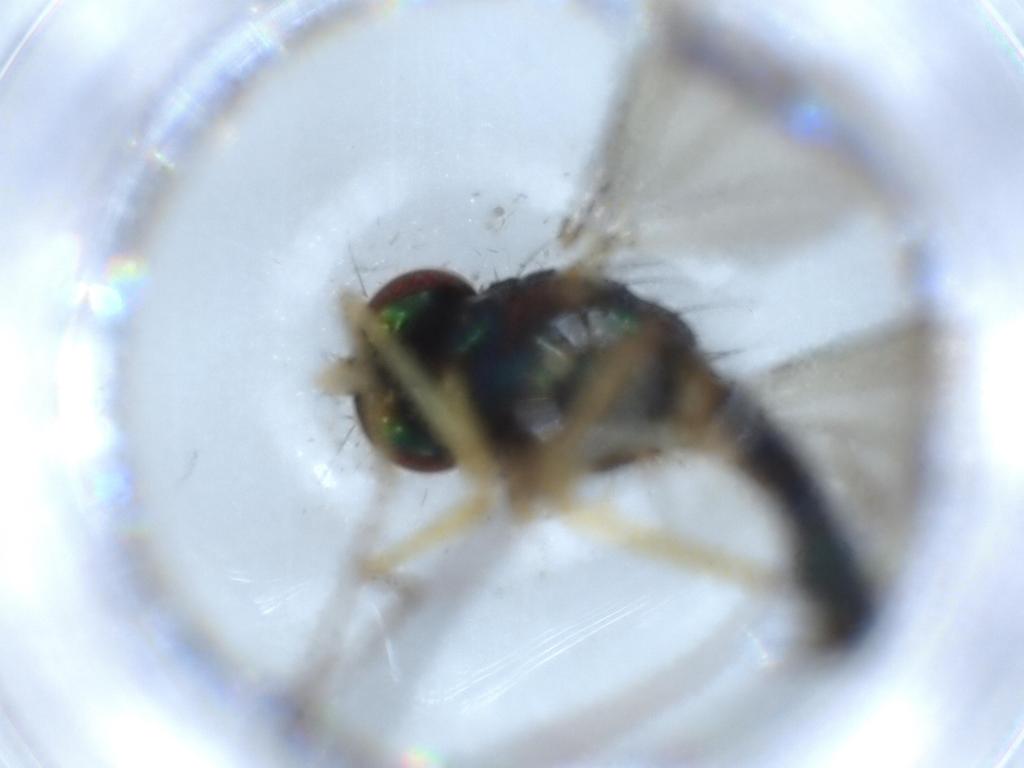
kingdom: Animalia
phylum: Arthropoda
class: Insecta
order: Diptera
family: Dolichopodidae
